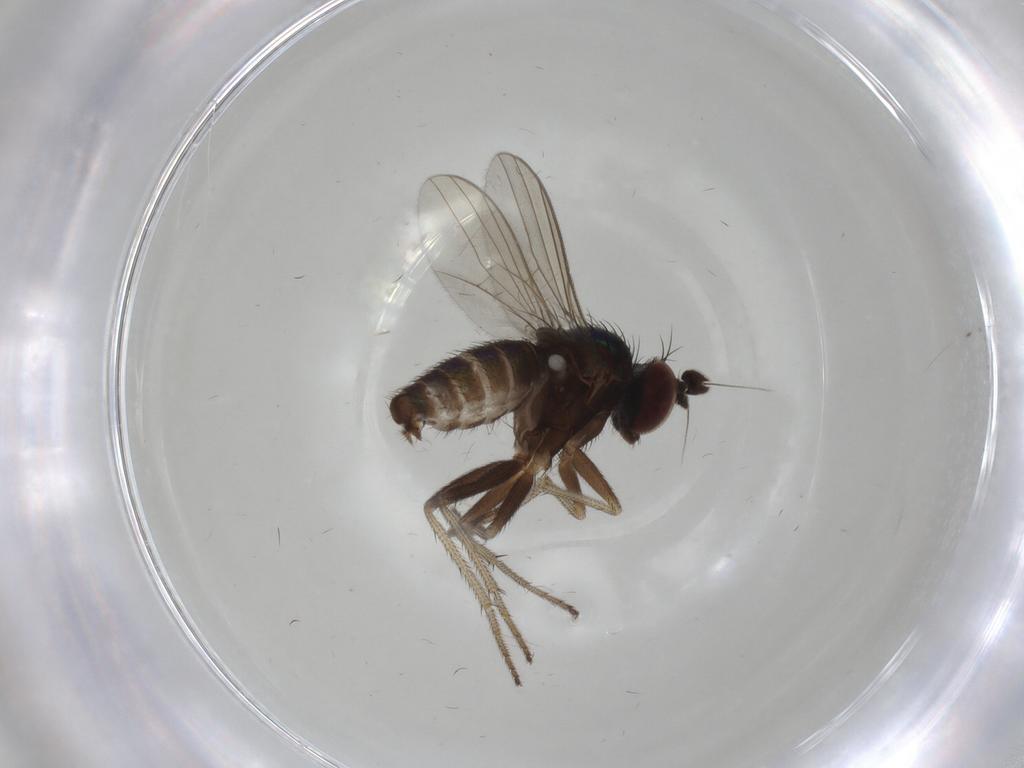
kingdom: Animalia
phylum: Arthropoda
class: Insecta
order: Diptera
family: Dolichopodidae
